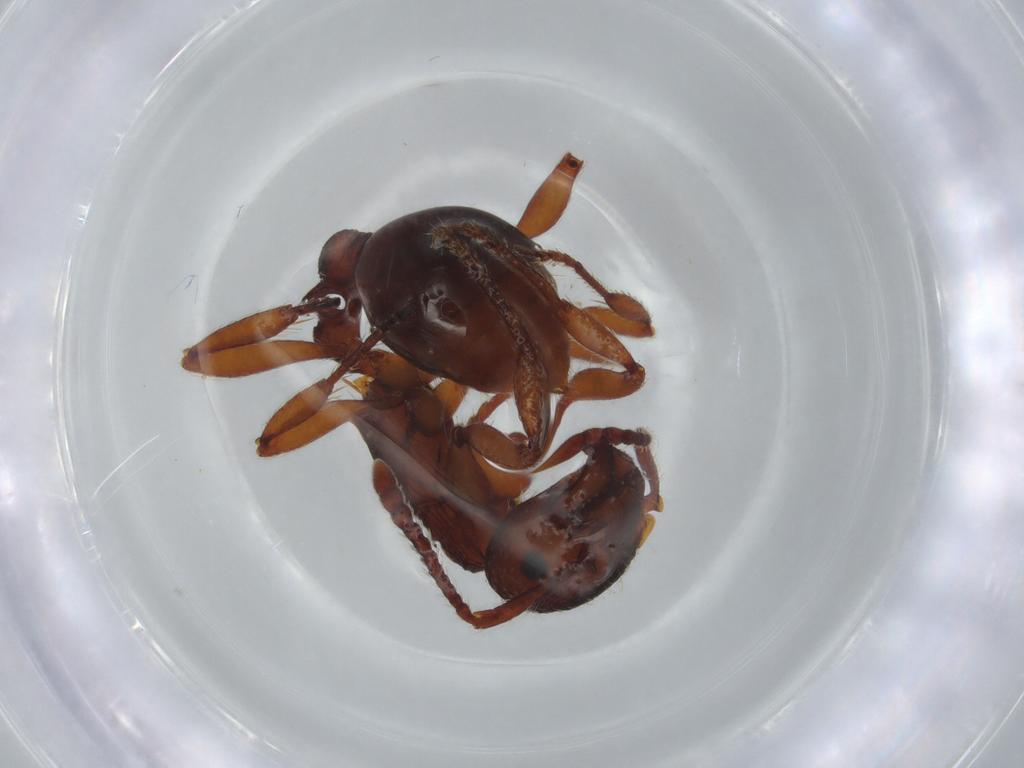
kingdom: Animalia
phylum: Arthropoda
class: Insecta
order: Hymenoptera
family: Formicidae
